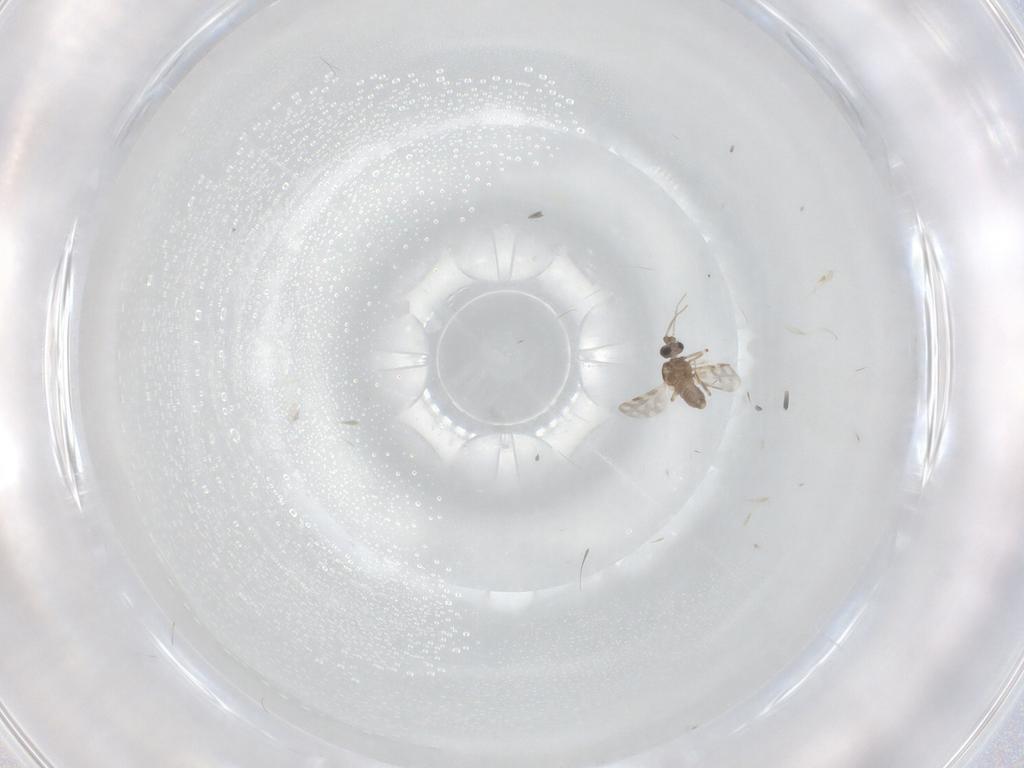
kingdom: Animalia
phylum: Arthropoda
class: Insecta
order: Diptera
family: Cecidomyiidae
